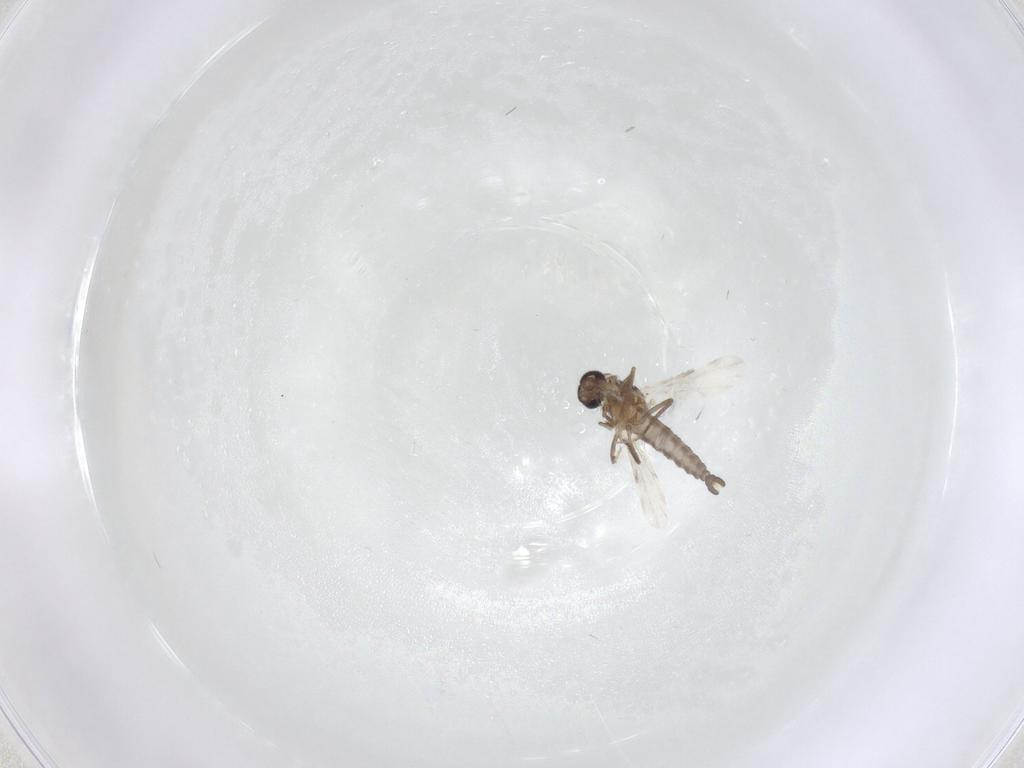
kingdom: Animalia
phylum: Arthropoda
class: Insecta
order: Diptera
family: Ceratopogonidae
